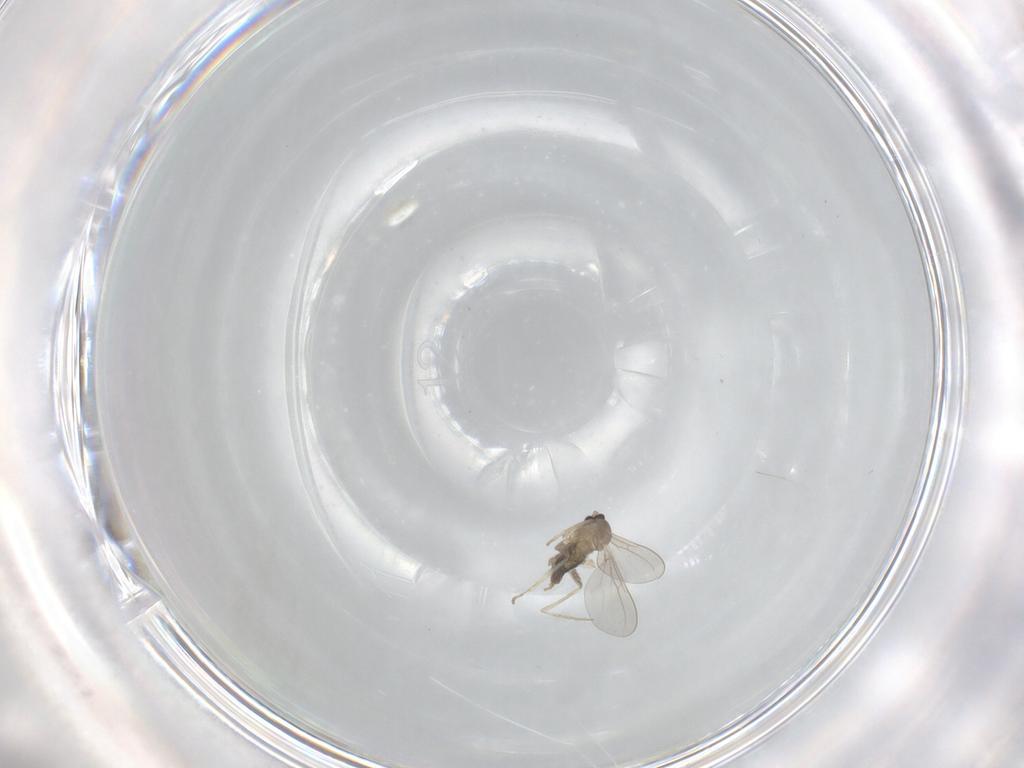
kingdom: Animalia
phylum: Arthropoda
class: Insecta
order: Diptera
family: Cecidomyiidae
